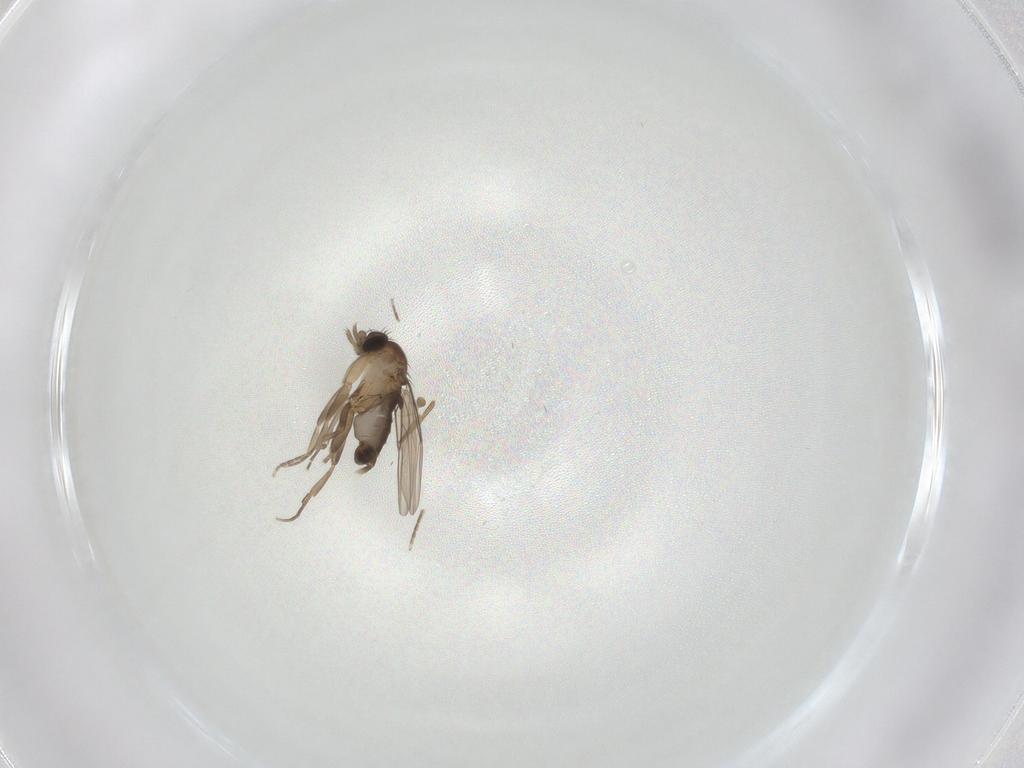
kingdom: Animalia
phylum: Arthropoda
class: Insecta
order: Diptera
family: Phoridae
